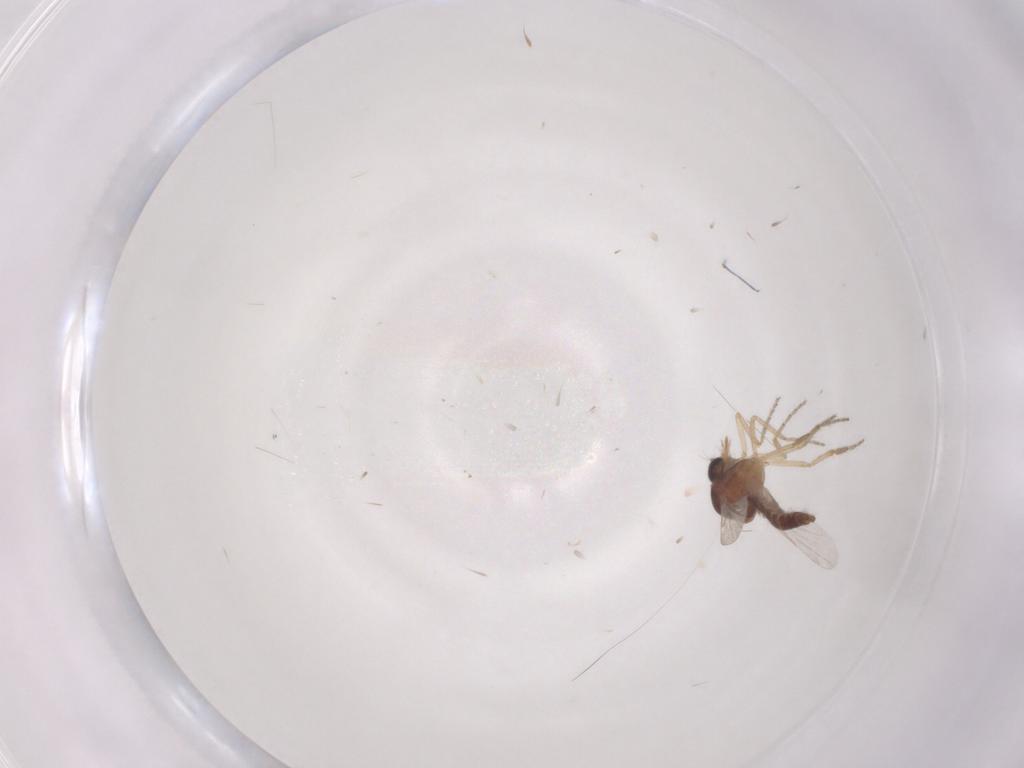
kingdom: Animalia
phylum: Arthropoda
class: Insecta
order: Diptera
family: Ceratopogonidae
